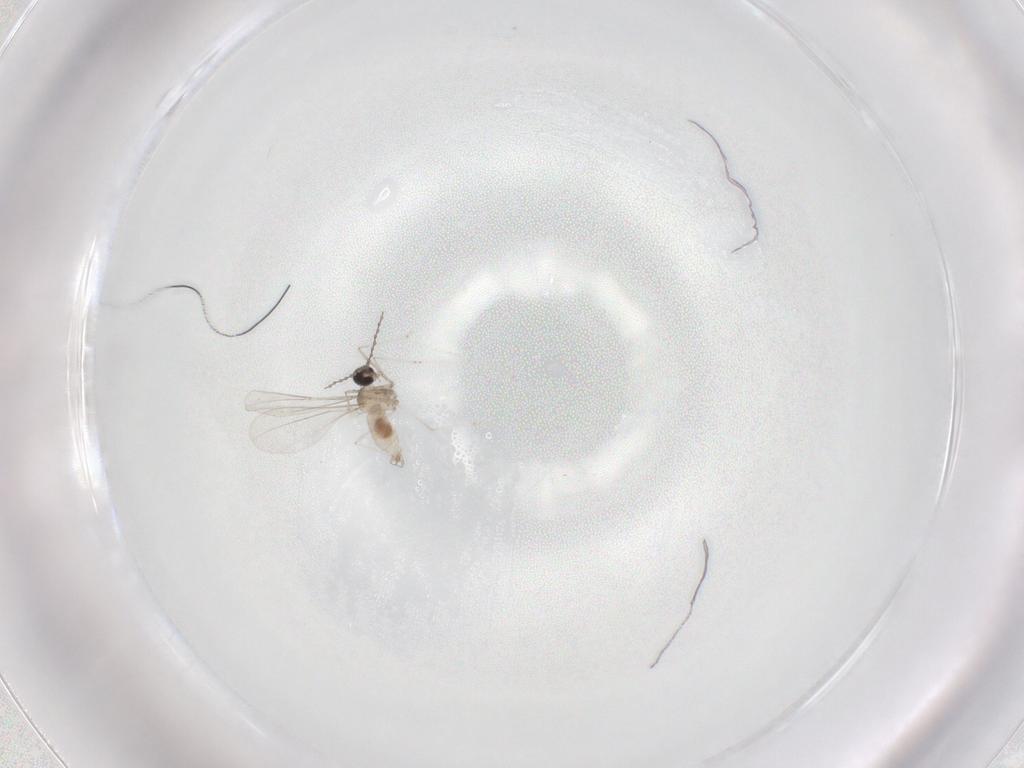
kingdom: Animalia
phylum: Arthropoda
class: Insecta
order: Diptera
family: Cecidomyiidae
